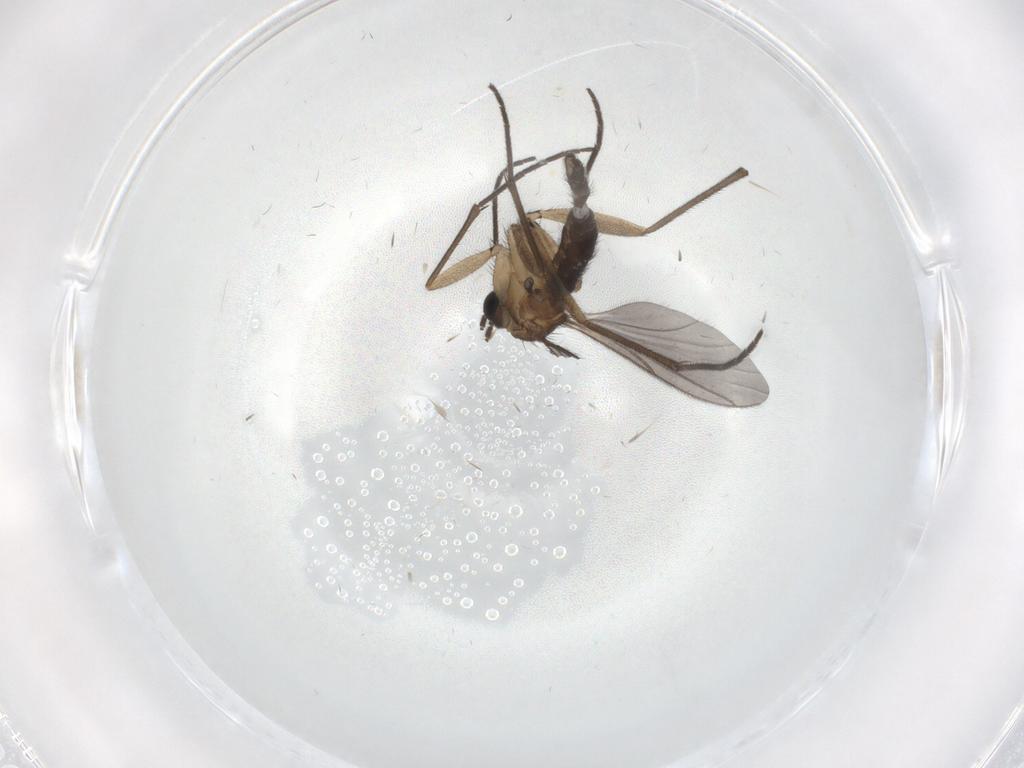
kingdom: Animalia
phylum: Arthropoda
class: Insecta
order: Diptera
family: Cecidomyiidae
